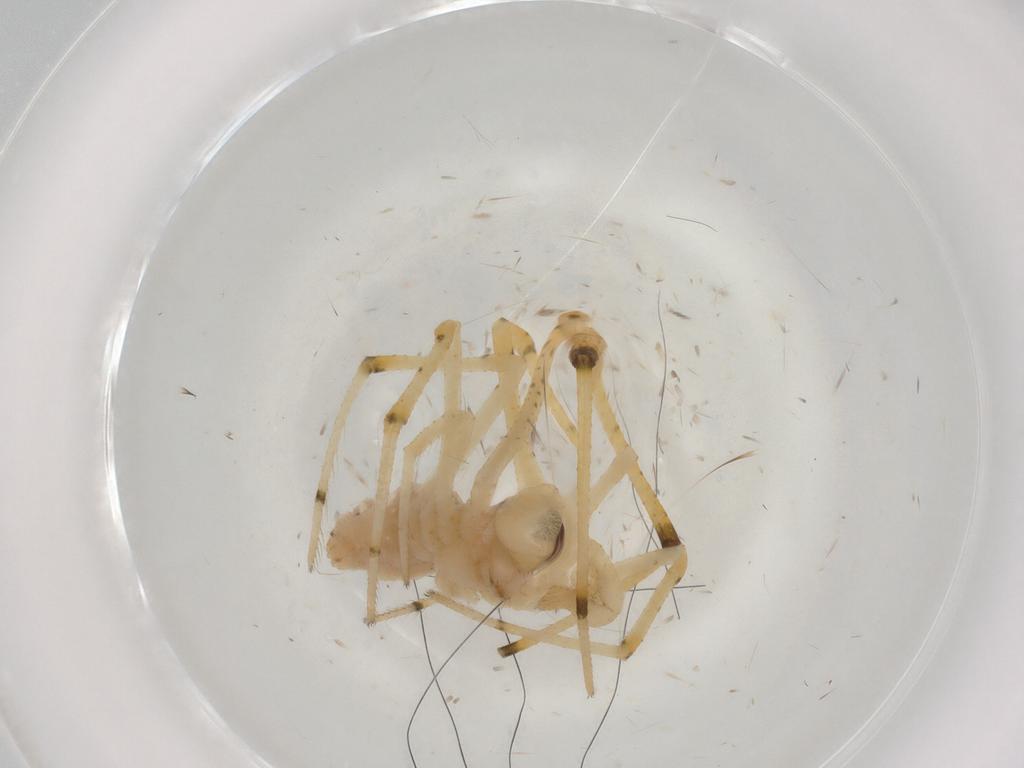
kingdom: Animalia
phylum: Arthropoda
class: Arachnida
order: Araneae
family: Theridiidae
